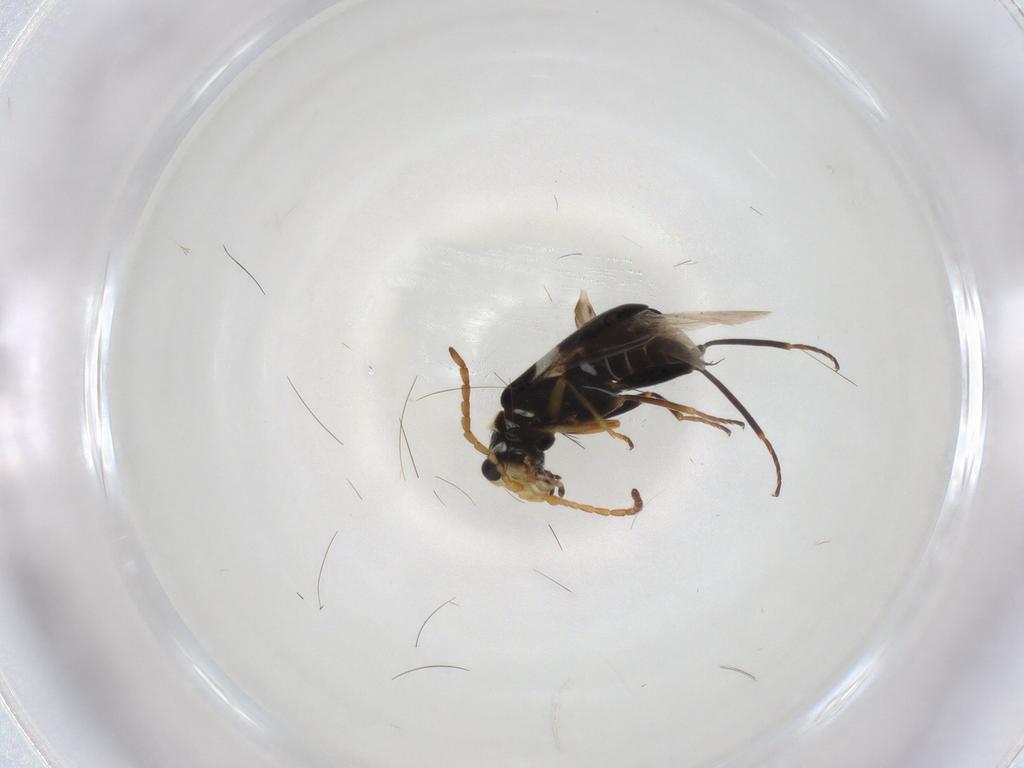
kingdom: Animalia
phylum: Arthropoda
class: Insecta
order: Coleoptera
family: Melyridae
